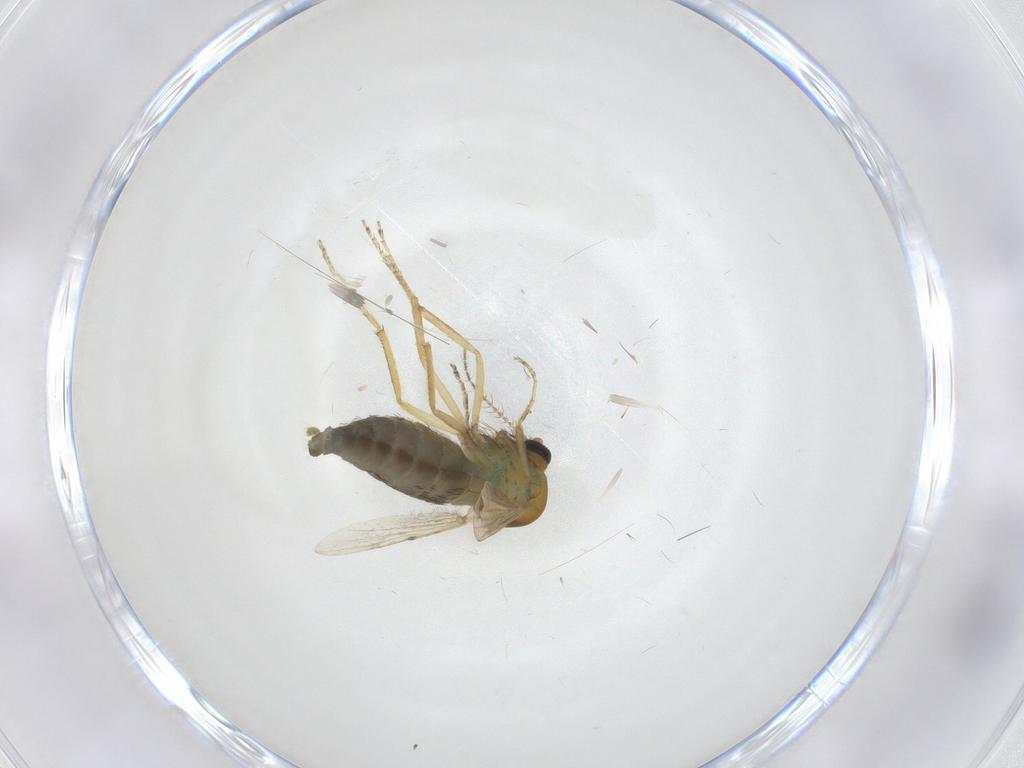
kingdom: Animalia
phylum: Arthropoda
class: Insecta
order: Diptera
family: Ceratopogonidae
